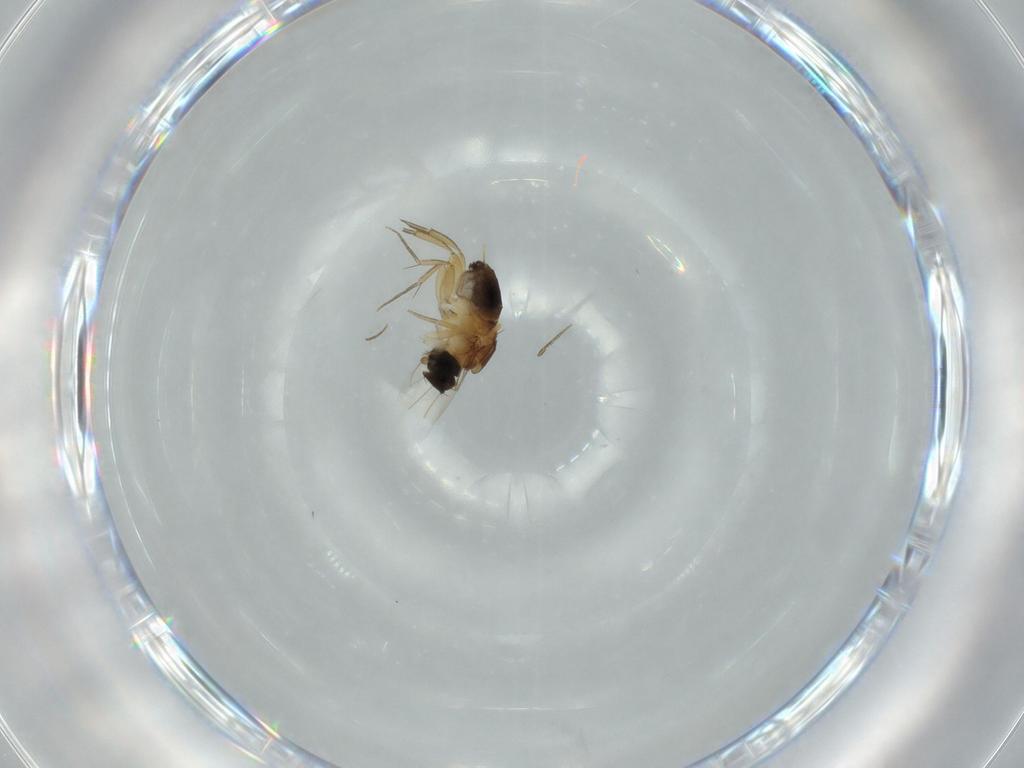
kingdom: Animalia
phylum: Arthropoda
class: Insecta
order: Diptera
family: Phoridae
